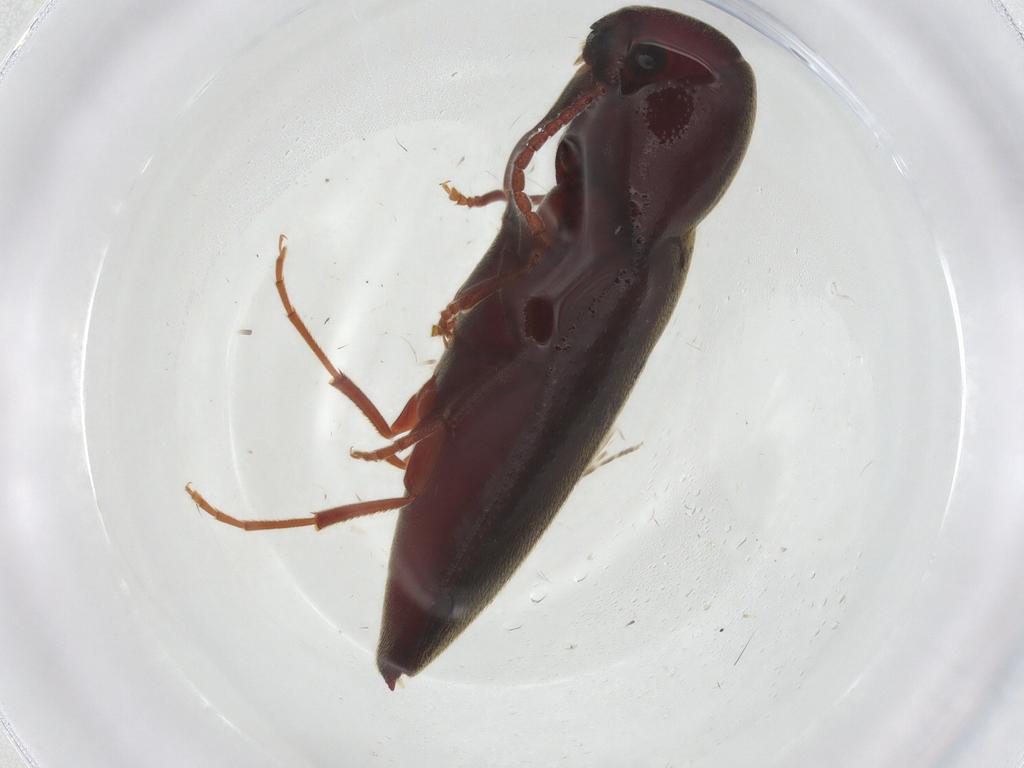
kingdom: Animalia
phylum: Arthropoda
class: Insecta
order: Coleoptera
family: Eucnemidae
